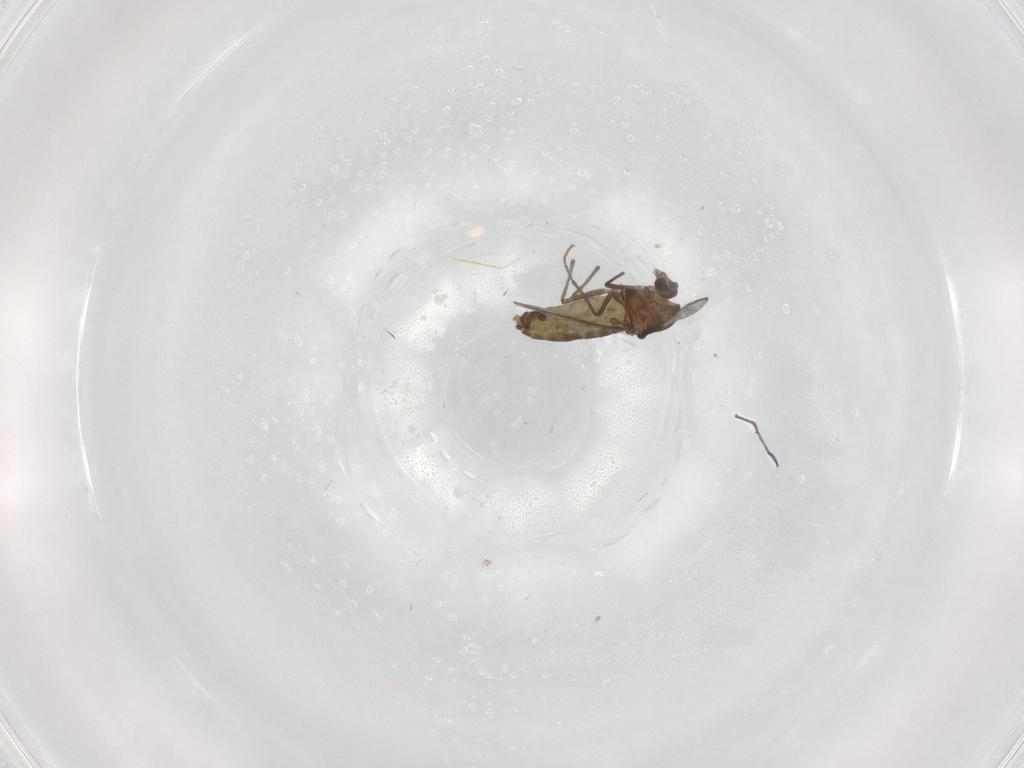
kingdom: Animalia
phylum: Arthropoda
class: Insecta
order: Diptera
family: Chironomidae
